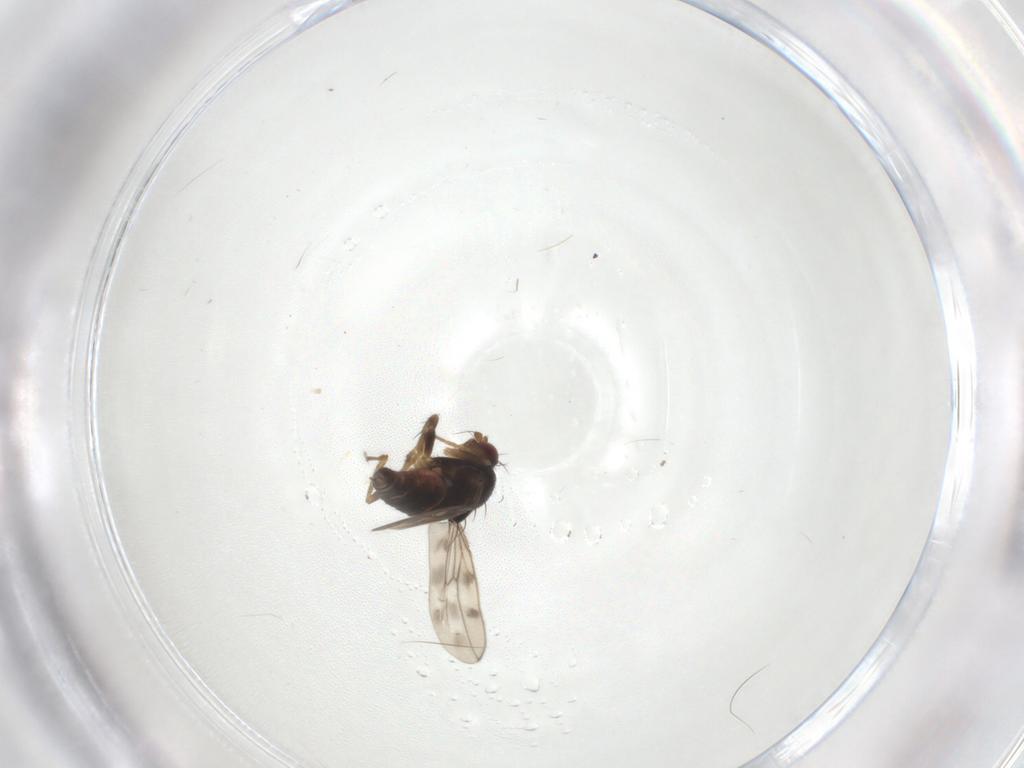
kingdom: Animalia
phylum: Arthropoda
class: Insecta
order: Diptera
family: Sphaeroceridae
